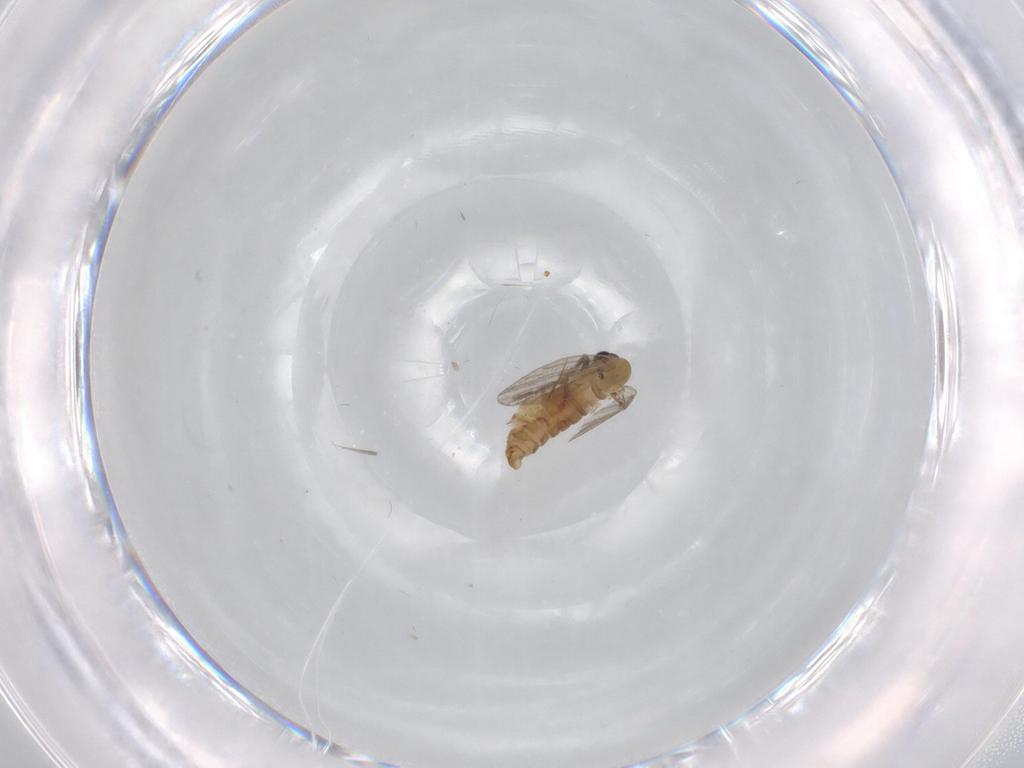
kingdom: Animalia
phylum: Arthropoda
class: Insecta
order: Diptera
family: Psychodidae
